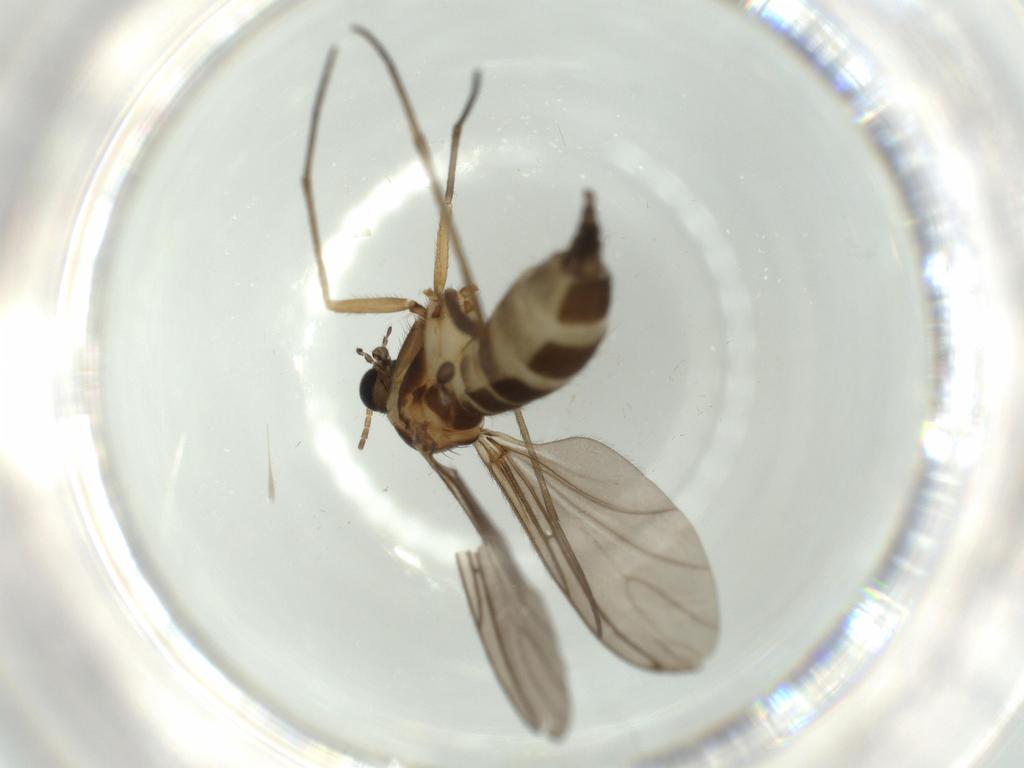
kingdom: Animalia
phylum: Arthropoda
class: Insecta
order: Diptera
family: Sciaridae
